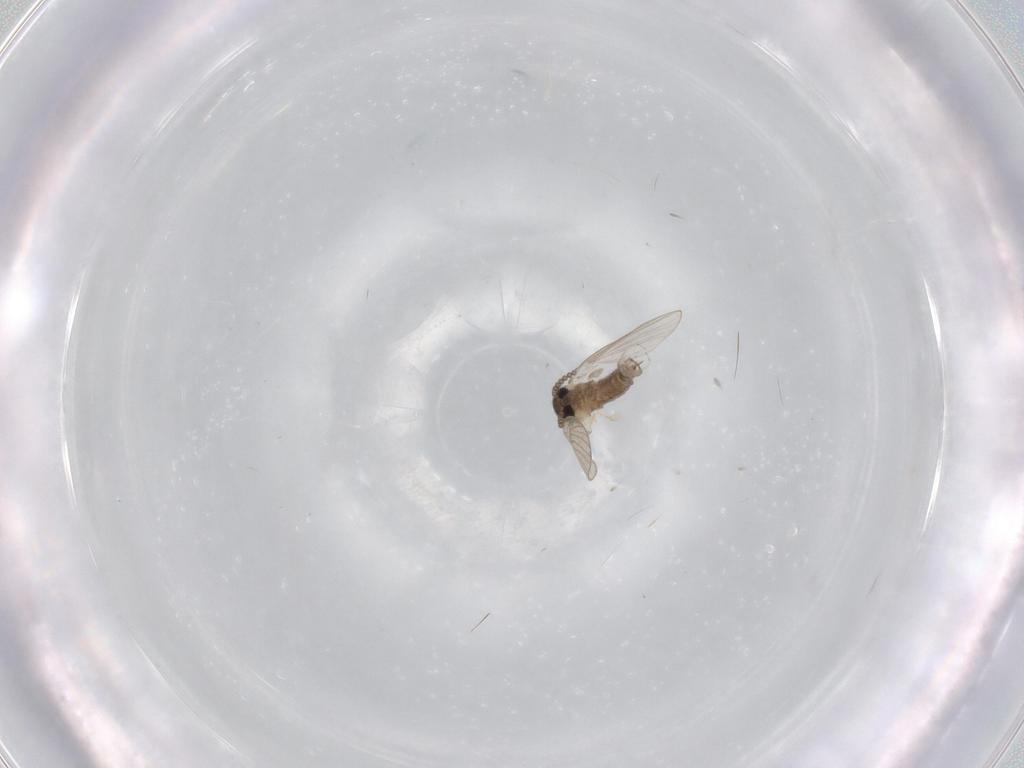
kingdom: Animalia
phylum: Arthropoda
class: Insecta
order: Diptera
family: Psychodidae
